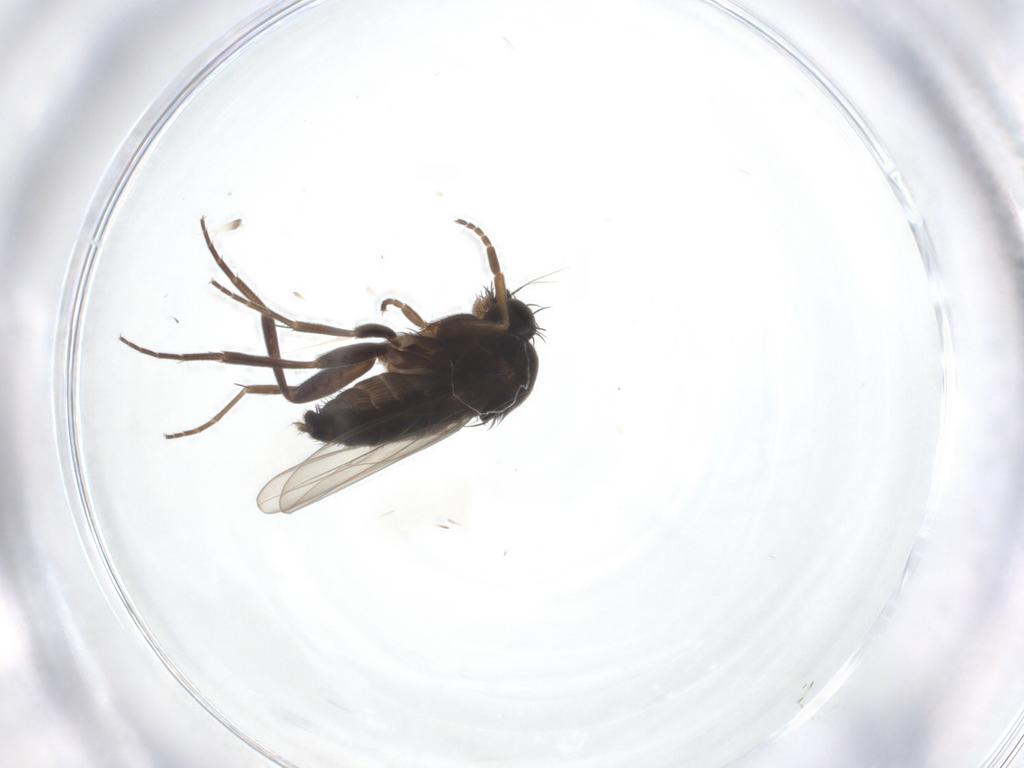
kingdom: Animalia
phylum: Arthropoda
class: Insecta
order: Diptera
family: Phoridae
